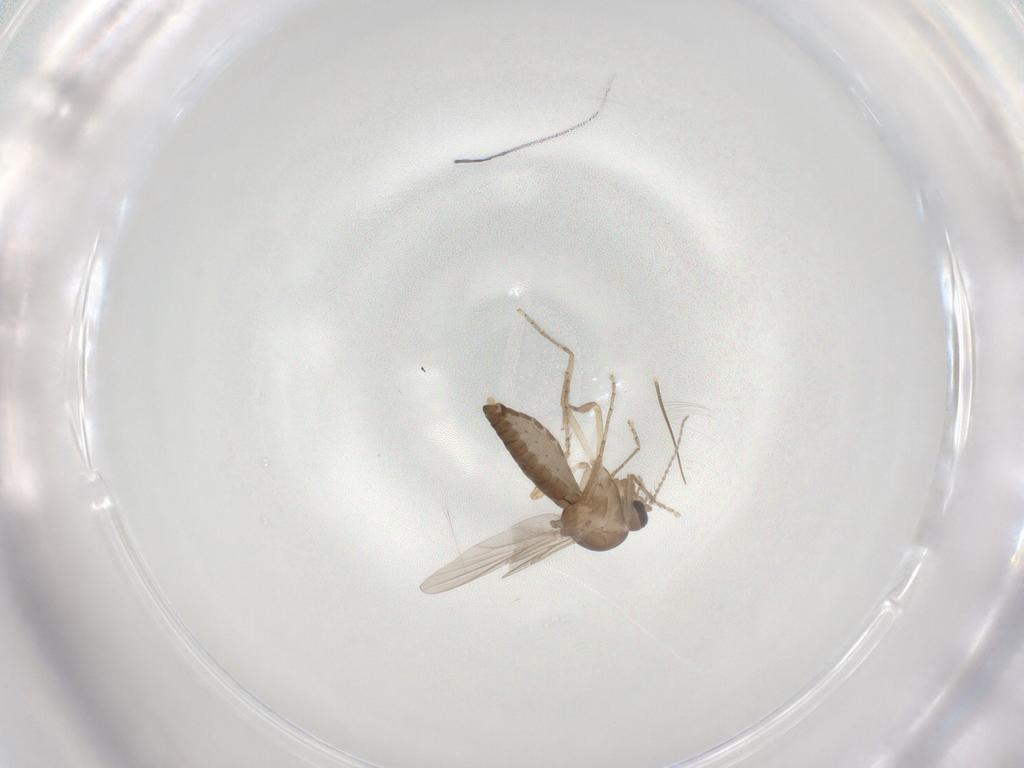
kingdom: Animalia
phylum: Arthropoda
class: Insecta
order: Diptera
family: Ceratopogonidae
